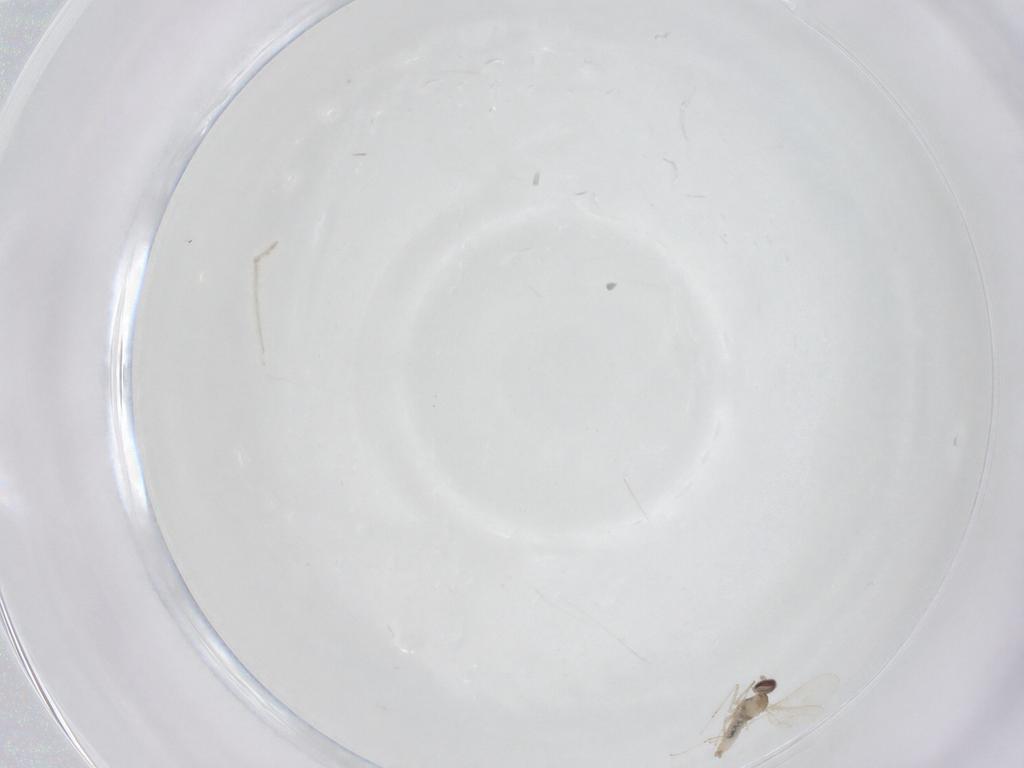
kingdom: Animalia
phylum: Arthropoda
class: Insecta
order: Diptera
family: Cecidomyiidae
